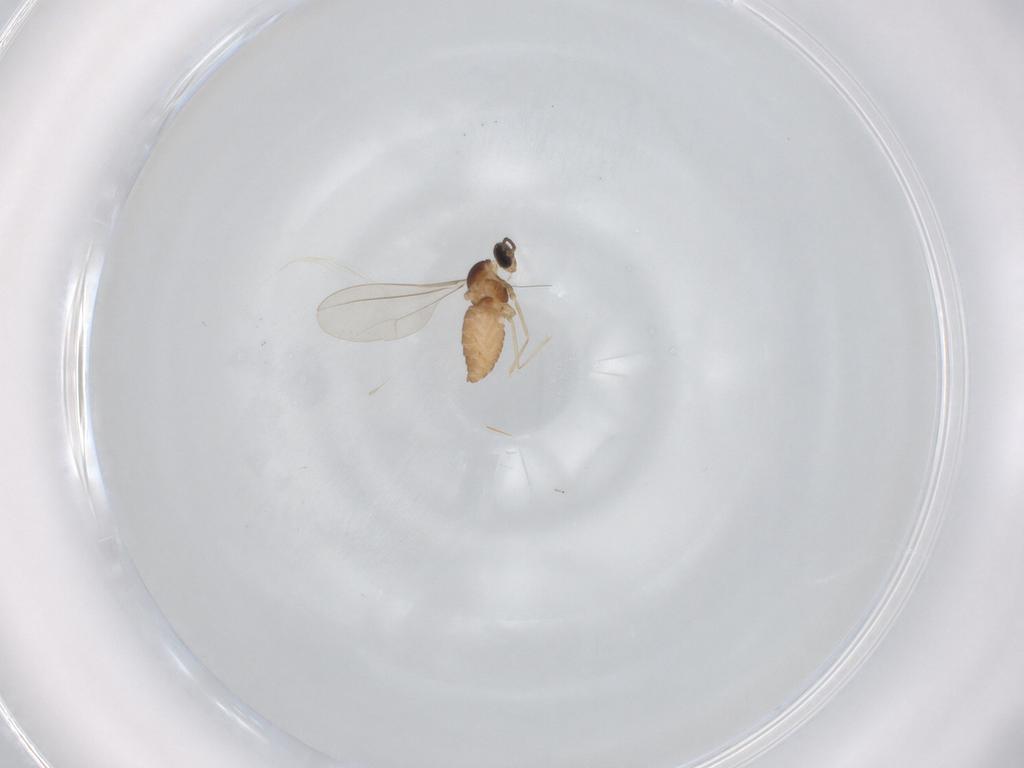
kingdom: Animalia
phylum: Arthropoda
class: Insecta
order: Diptera
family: Cecidomyiidae
